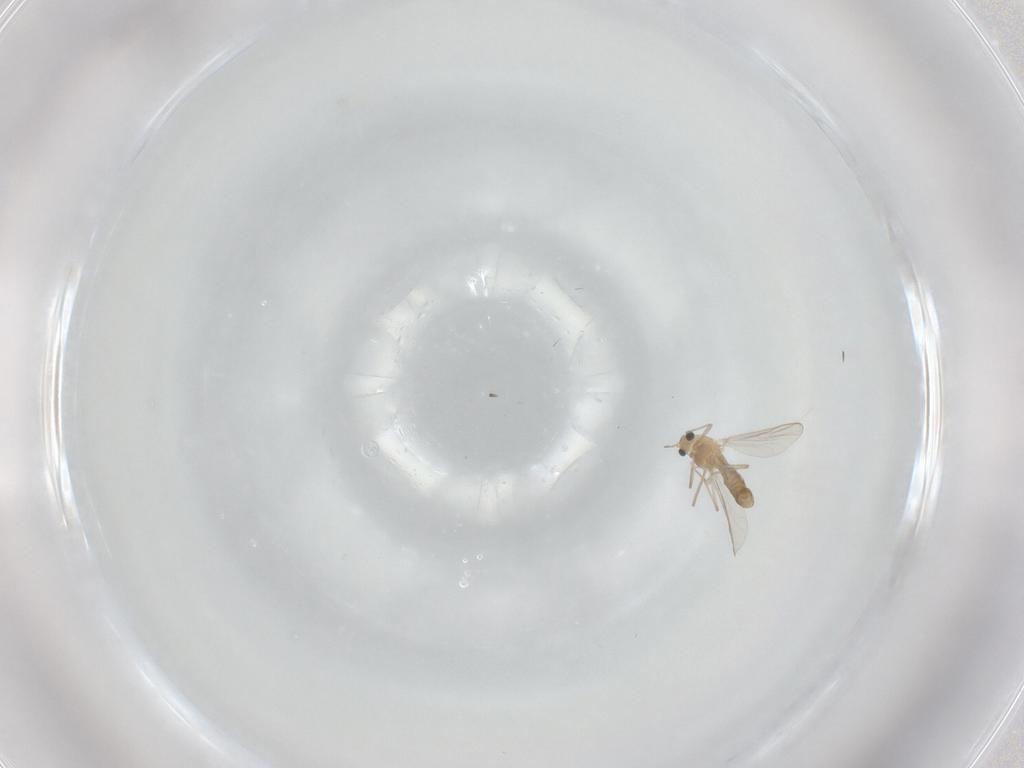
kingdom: Animalia
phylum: Arthropoda
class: Insecta
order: Diptera
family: Chironomidae
